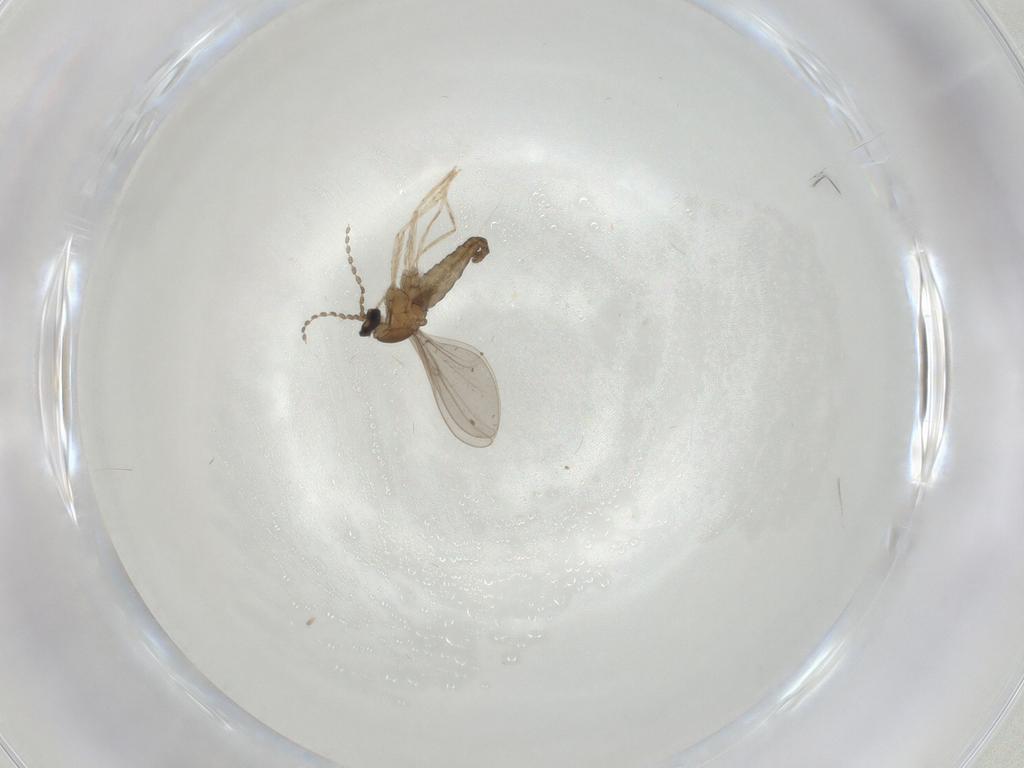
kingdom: Animalia
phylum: Arthropoda
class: Insecta
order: Diptera
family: Cecidomyiidae
